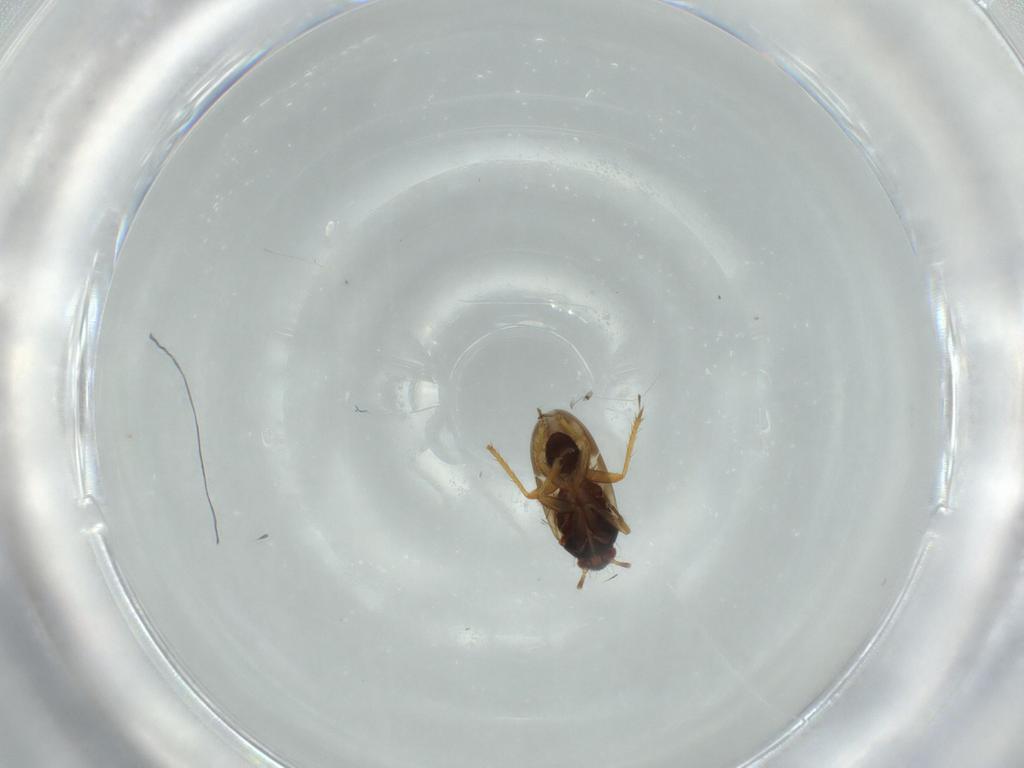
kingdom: Animalia
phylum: Arthropoda
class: Insecta
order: Hemiptera
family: Ceratocombidae
